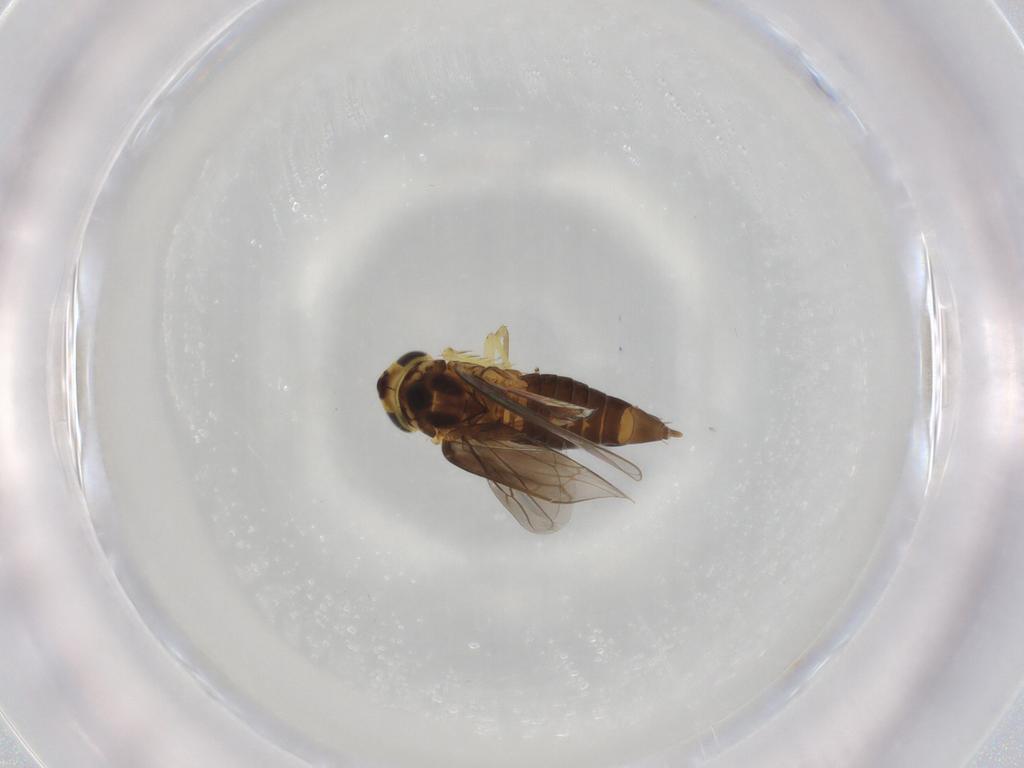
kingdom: Animalia
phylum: Arthropoda
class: Insecta
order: Hemiptera
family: Cicadellidae
